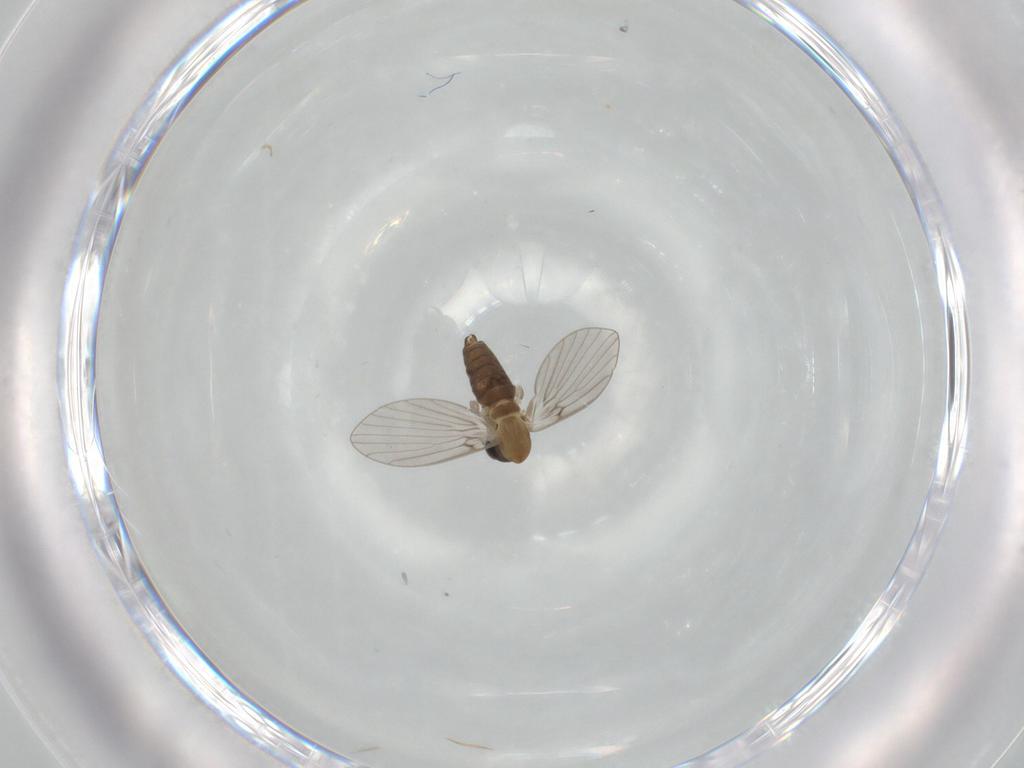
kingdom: Animalia
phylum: Arthropoda
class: Insecta
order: Diptera
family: Psychodidae
